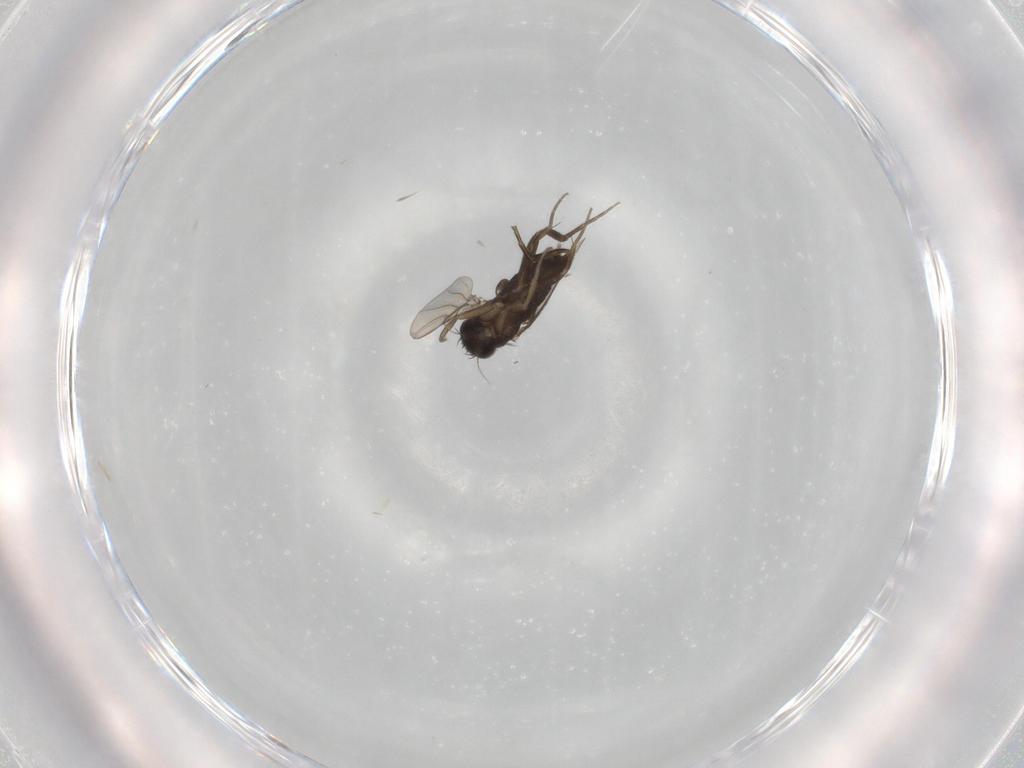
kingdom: Animalia
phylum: Arthropoda
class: Insecta
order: Diptera
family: Phoridae
